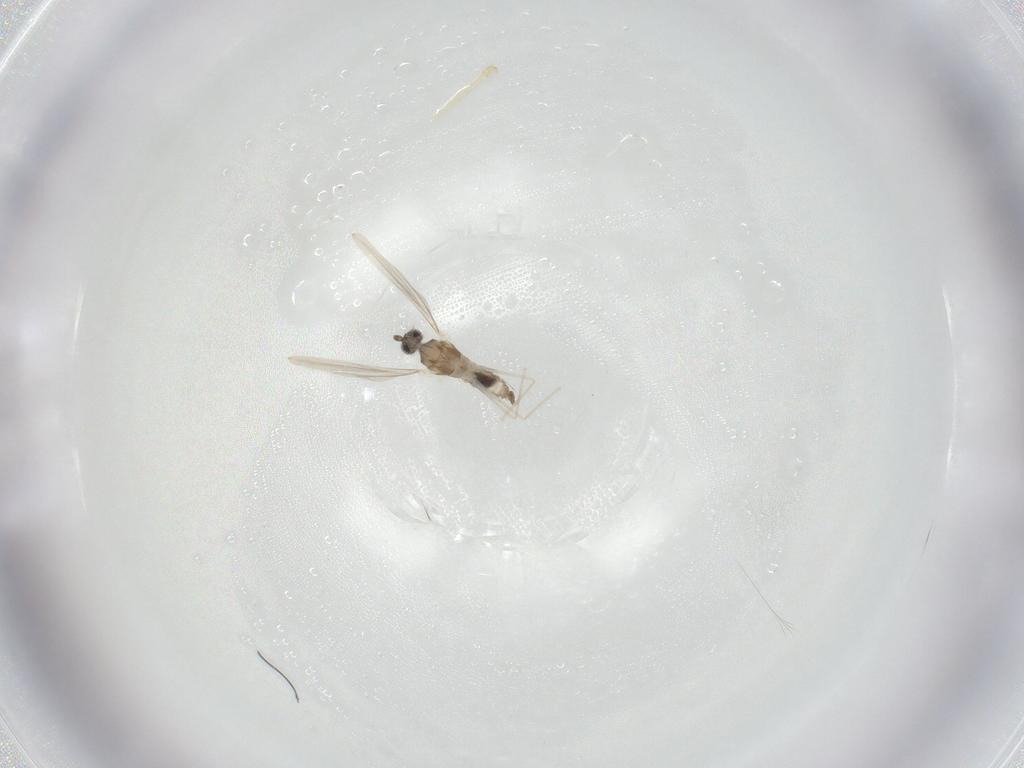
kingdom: Animalia
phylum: Arthropoda
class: Insecta
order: Diptera
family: Cecidomyiidae
